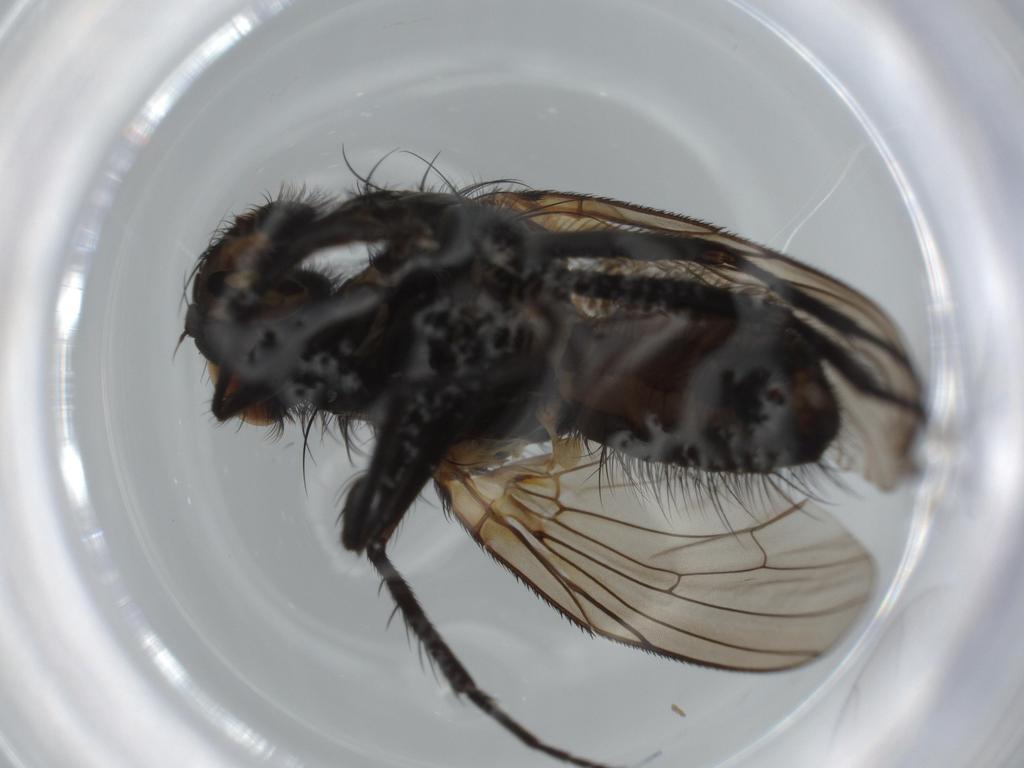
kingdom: Animalia
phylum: Arthropoda
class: Insecta
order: Diptera
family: Anthomyiidae
